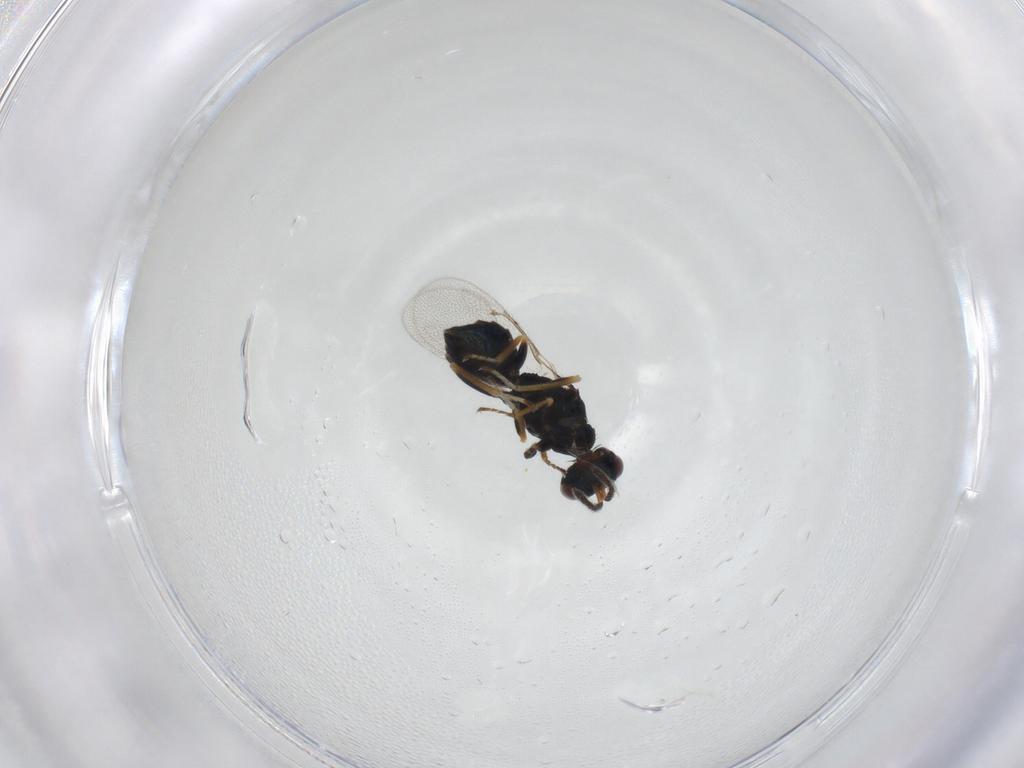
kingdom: Animalia
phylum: Arthropoda
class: Insecta
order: Hymenoptera
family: Eulophidae
